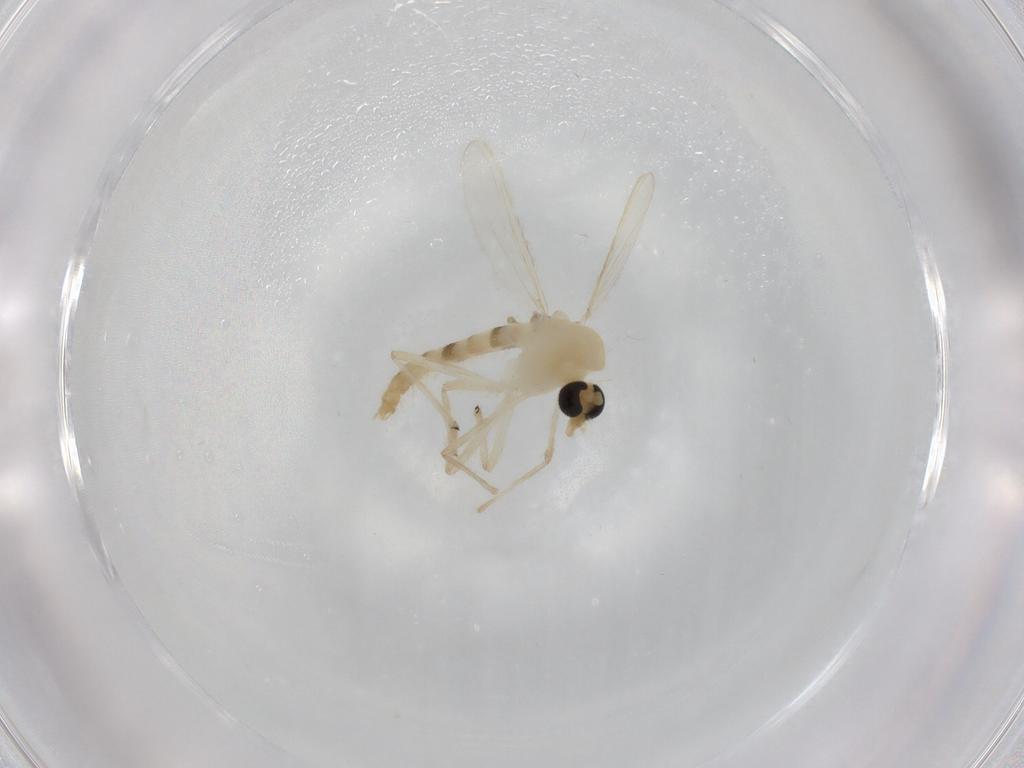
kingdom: Animalia
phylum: Arthropoda
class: Insecta
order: Diptera
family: Chironomidae
